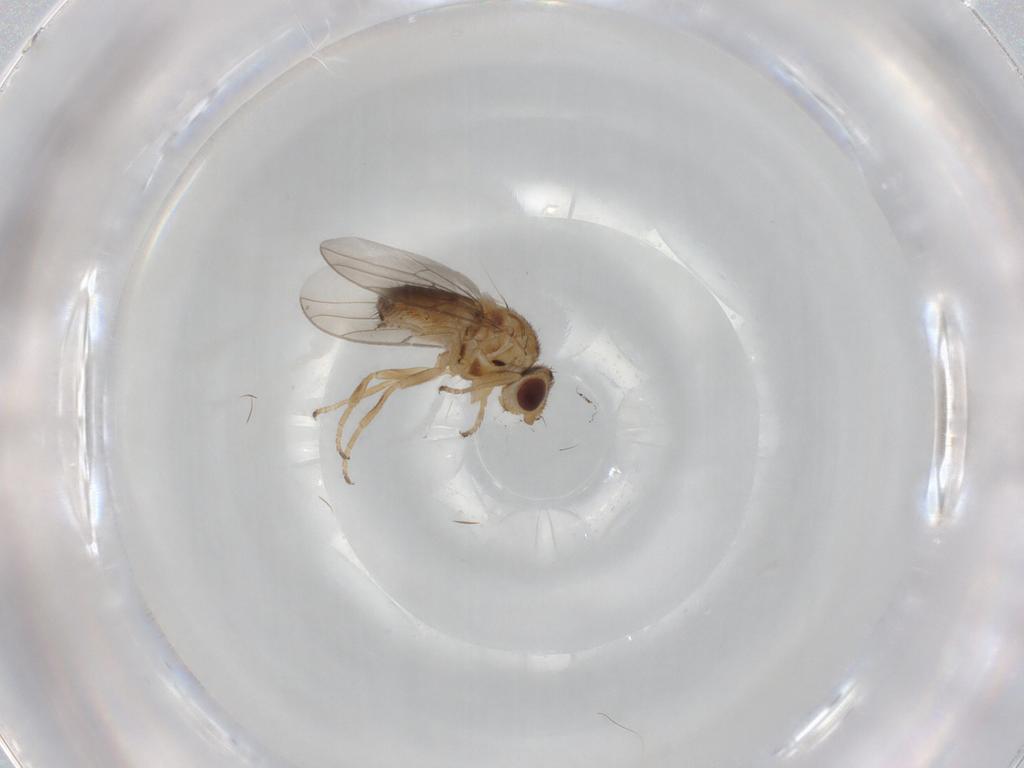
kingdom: Animalia
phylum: Arthropoda
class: Insecta
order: Diptera
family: Chloropidae
